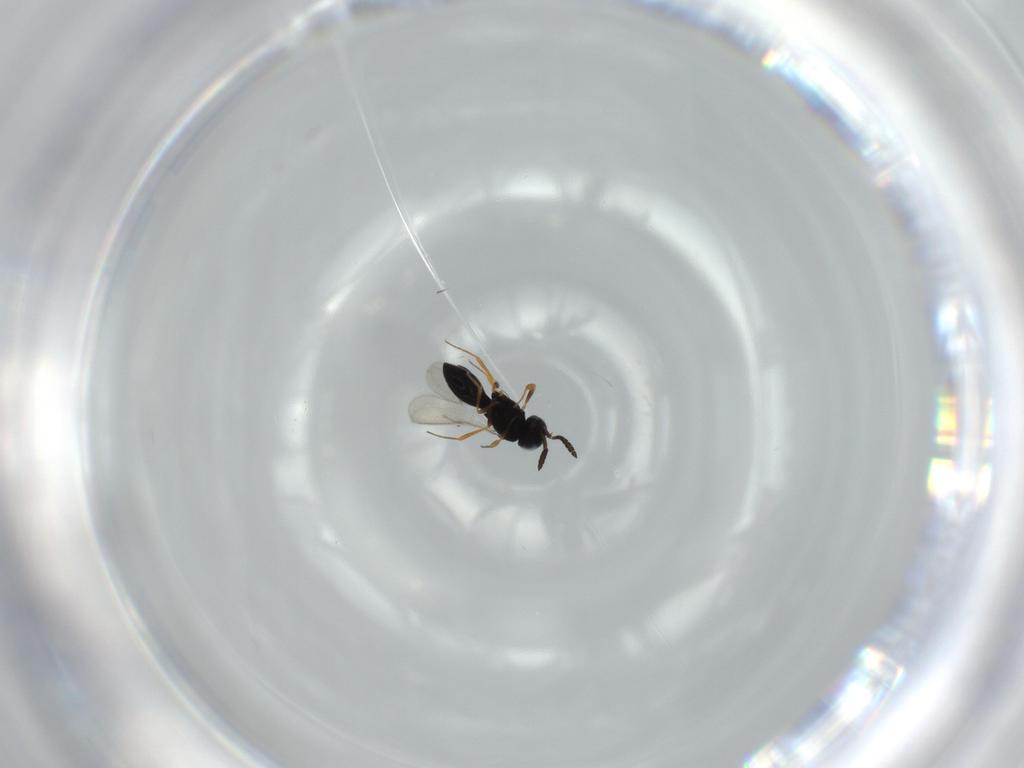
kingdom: Animalia
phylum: Arthropoda
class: Insecta
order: Hymenoptera
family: Scelionidae
